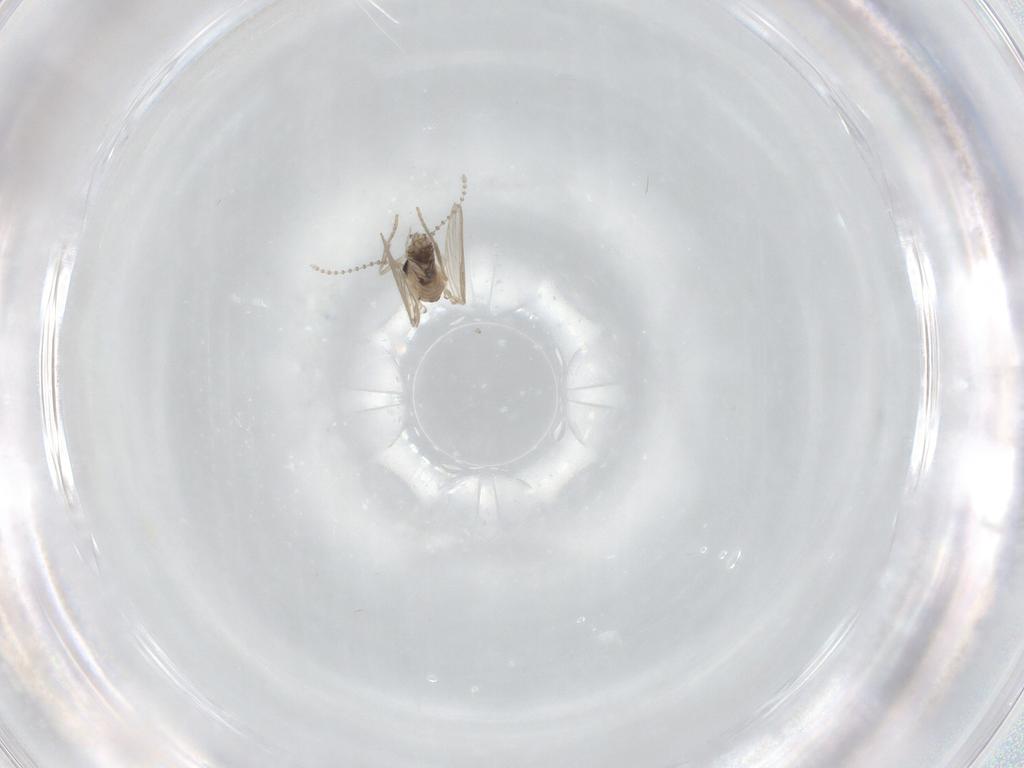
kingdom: Animalia
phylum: Arthropoda
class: Insecta
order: Diptera
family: Psychodidae
